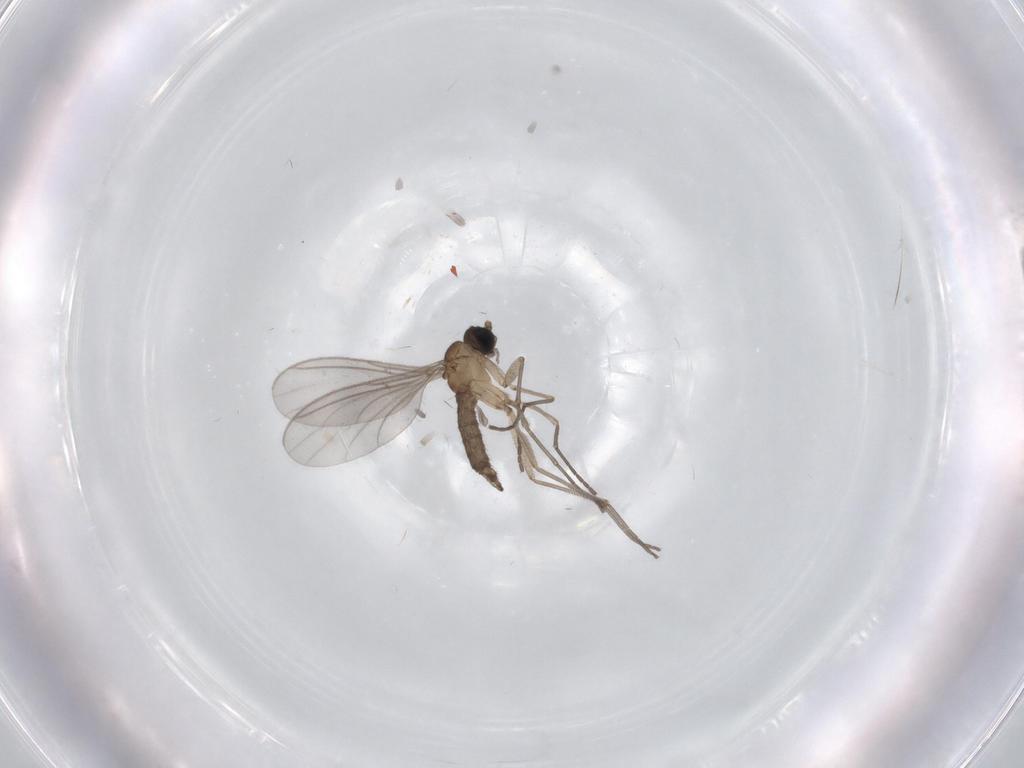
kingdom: Animalia
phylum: Arthropoda
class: Insecta
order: Diptera
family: Sciaridae
